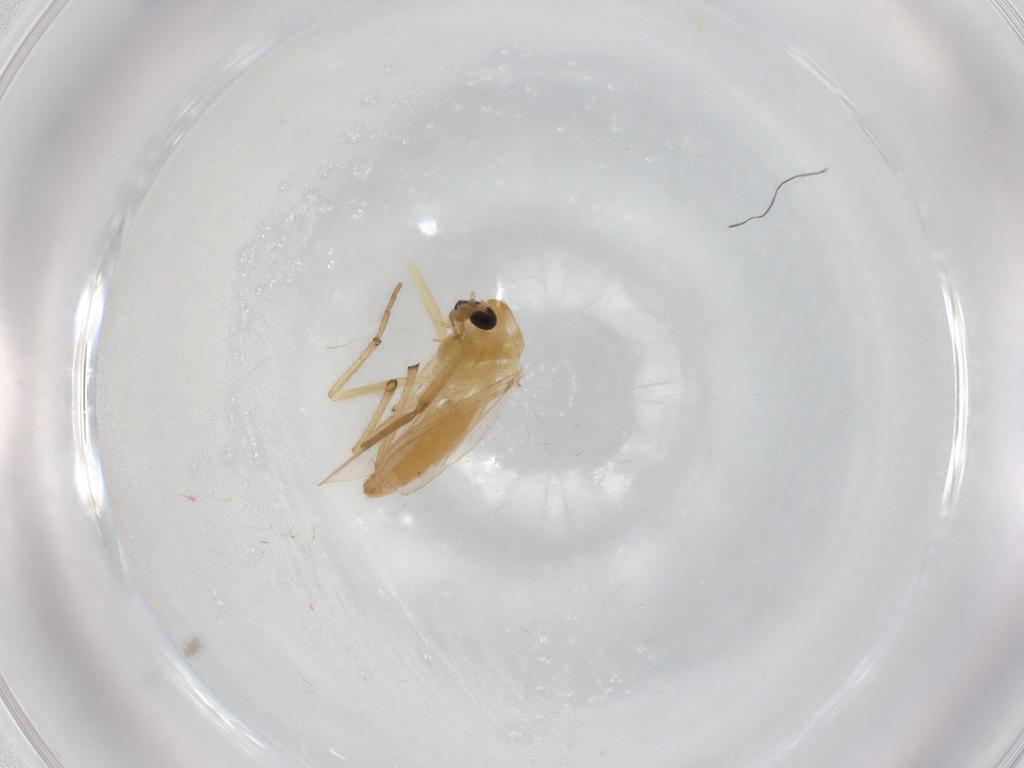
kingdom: Animalia
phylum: Arthropoda
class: Insecta
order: Diptera
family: Chironomidae
